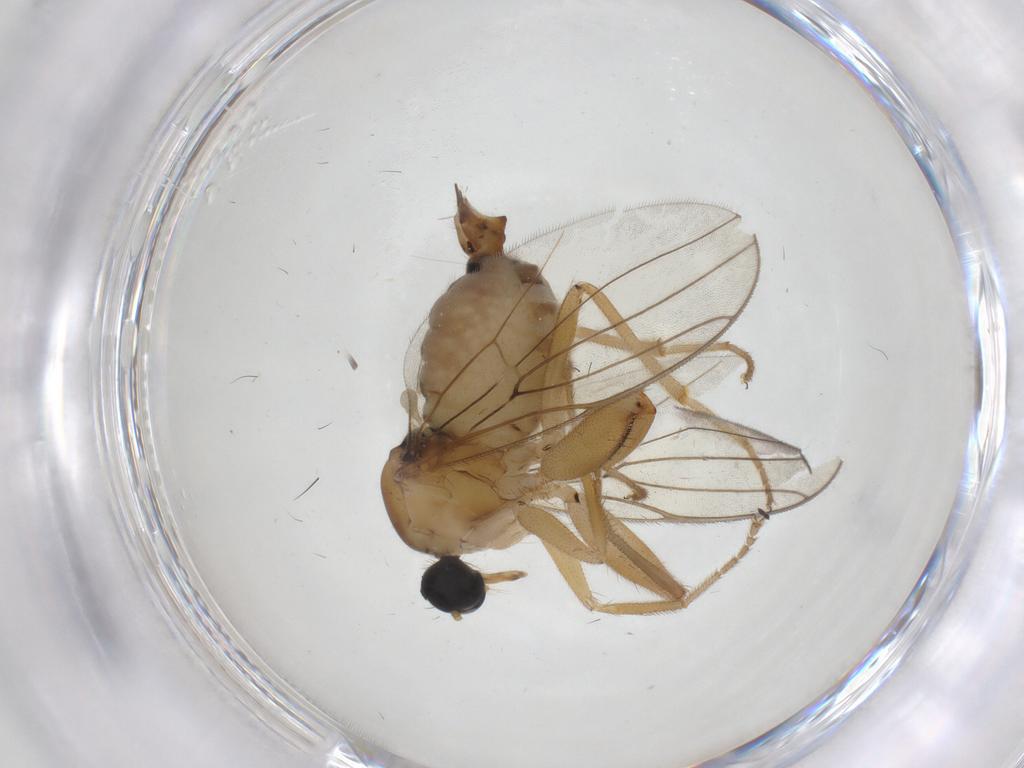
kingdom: Animalia
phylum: Arthropoda
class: Insecta
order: Diptera
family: Hybotidae
